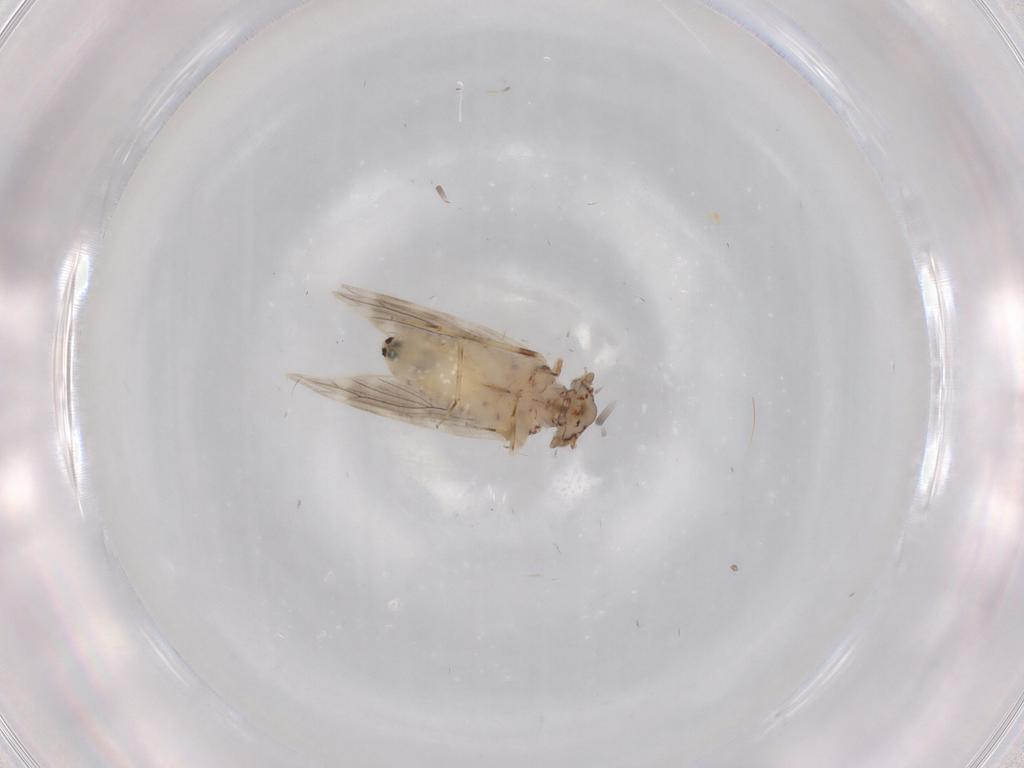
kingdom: Animalia
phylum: Arthropoda
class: Insecta
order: Psocodea
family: Lepidopsocidae
